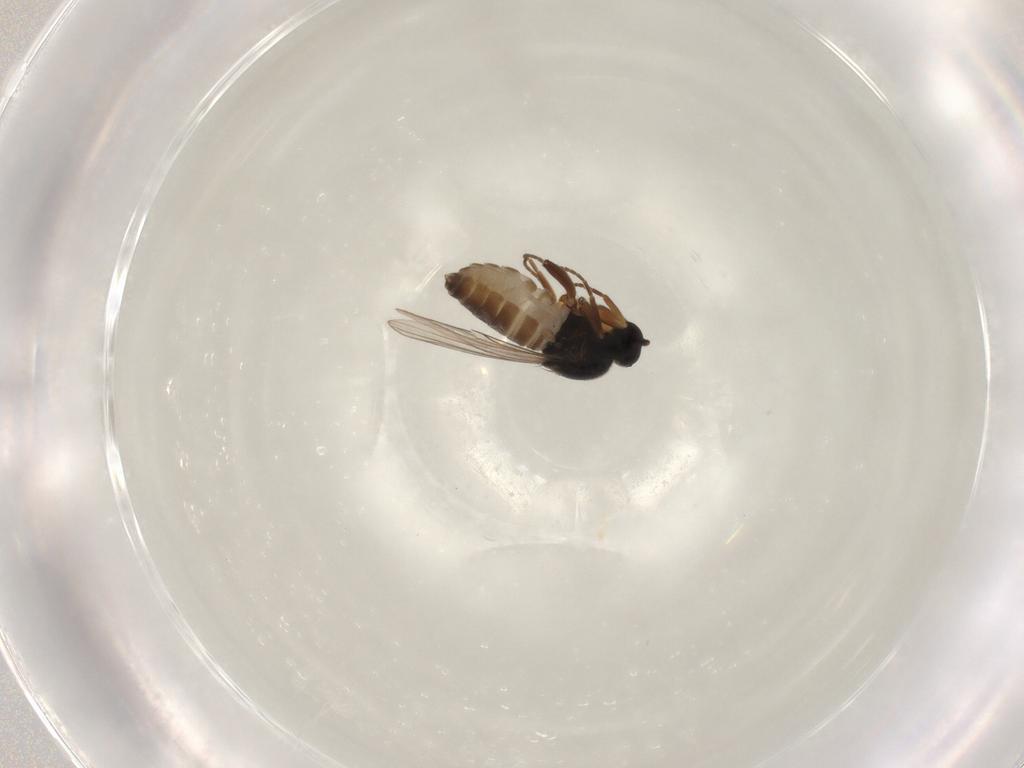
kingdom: Animalia
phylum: Arthropoda
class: Insecta
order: Diptera
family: Hybotidae
